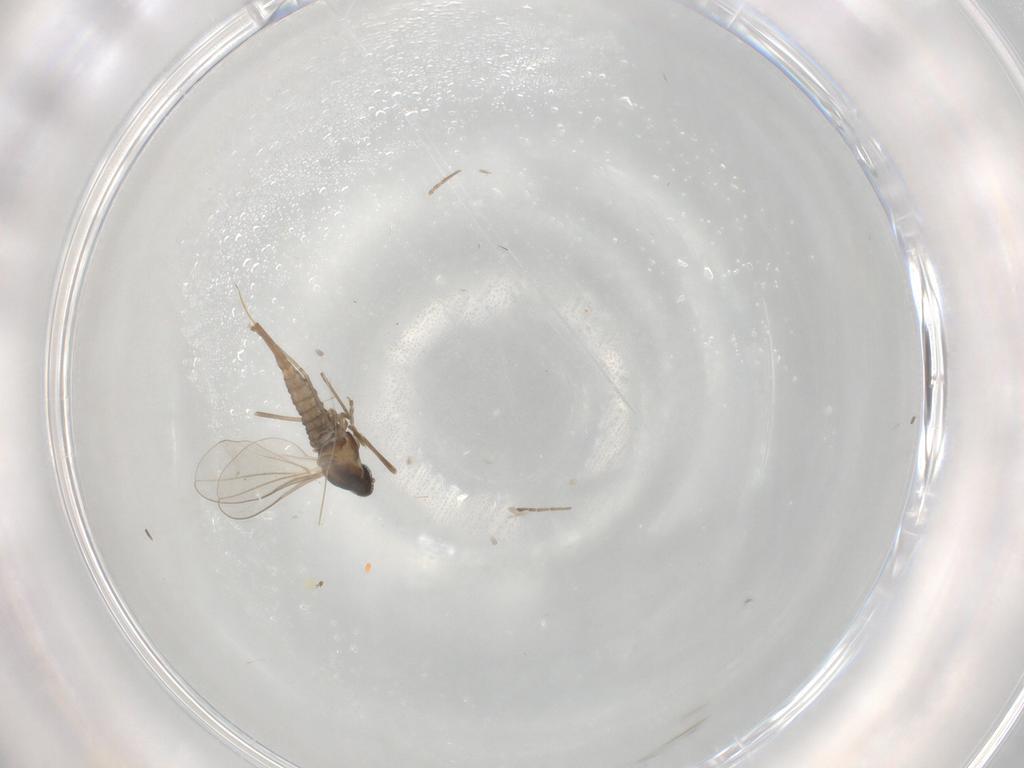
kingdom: Animalia
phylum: Arthropoda
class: Insecta
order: Diptera
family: Cecidomyiidae
